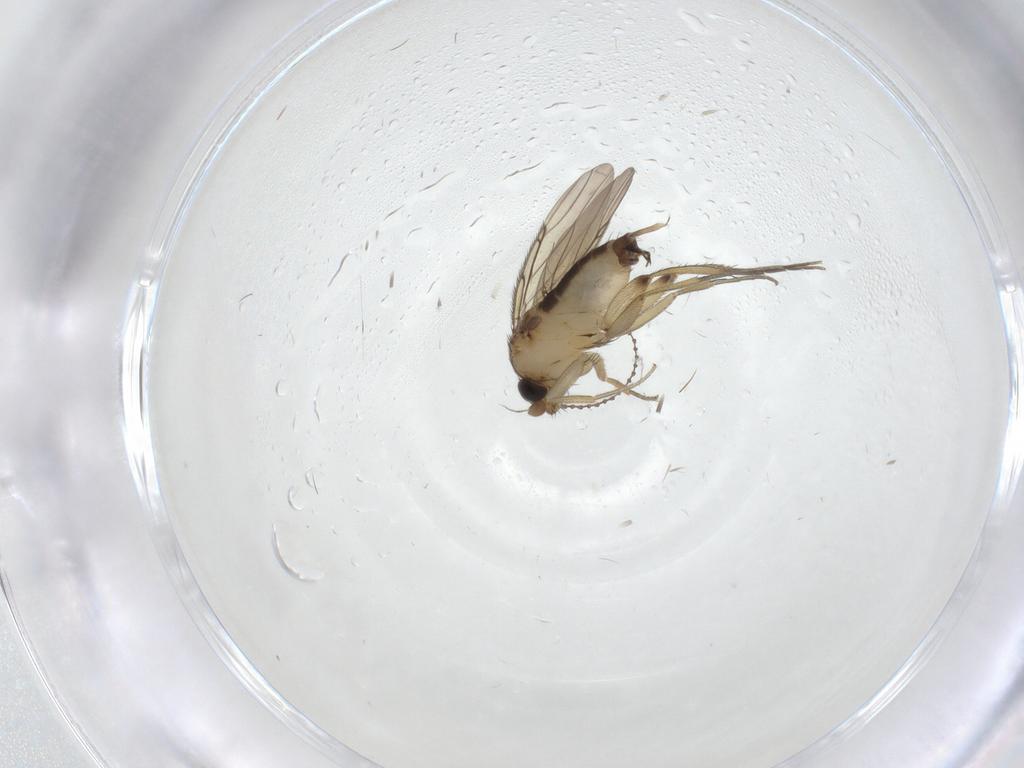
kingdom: Animalia
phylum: Arthropoda
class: Insecta
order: Diptera
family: Phoridae
